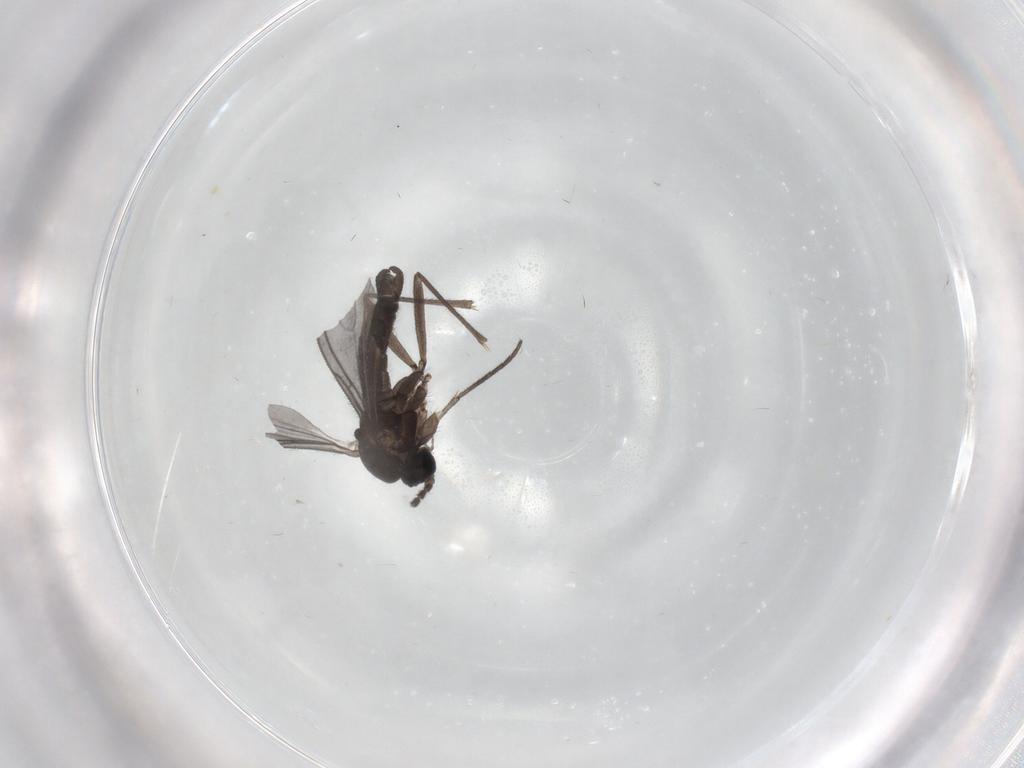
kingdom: Animalia
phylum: Arthropoda
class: Insecta
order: Diptera
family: Sciaridae
